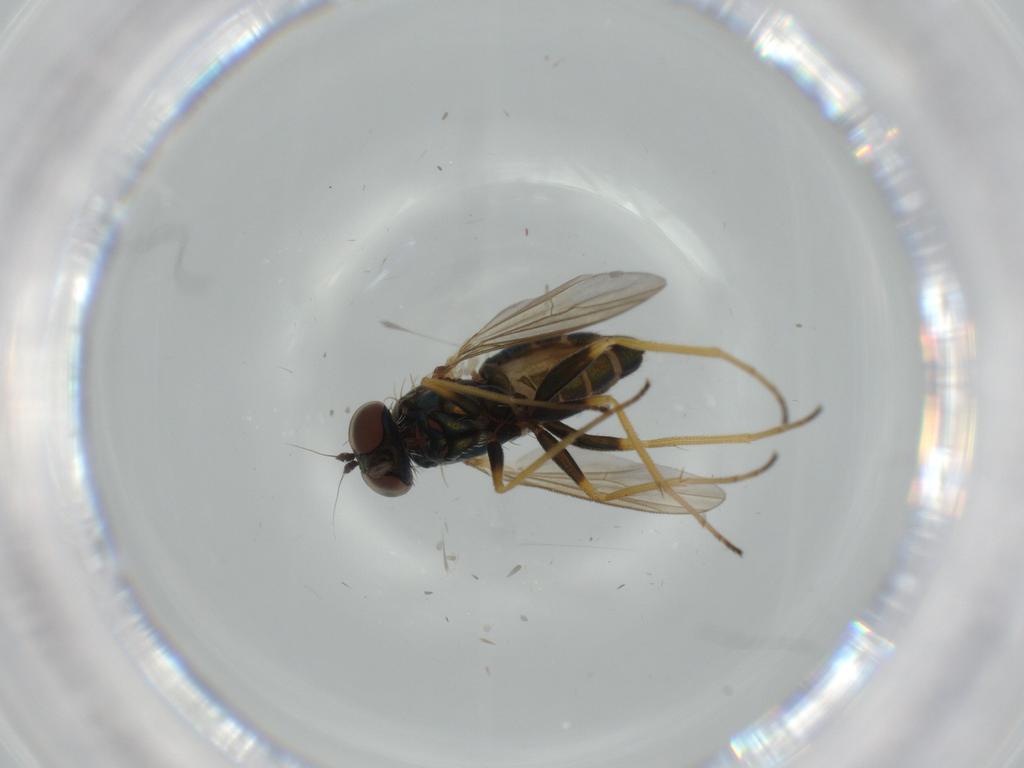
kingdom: Animalia
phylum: Arthropoda
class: Insecta
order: Diptera
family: Dolichopodidae
